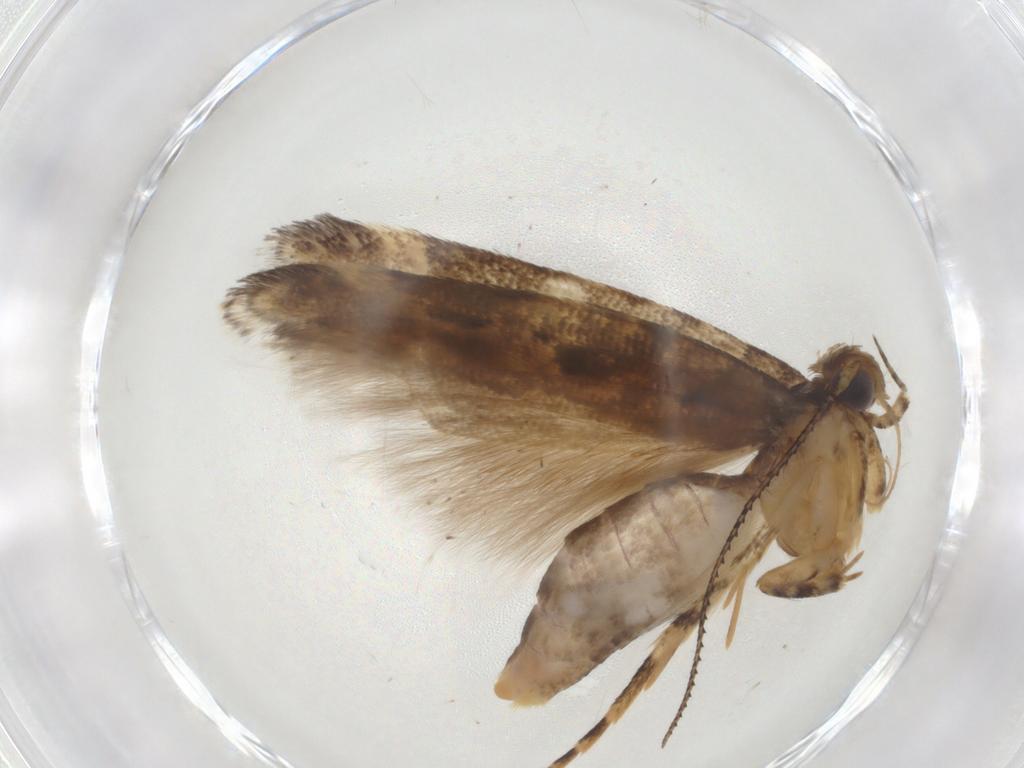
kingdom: Animalia
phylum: Arthropoda
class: Insecta
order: Lepidoptera
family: Gelechiidae
